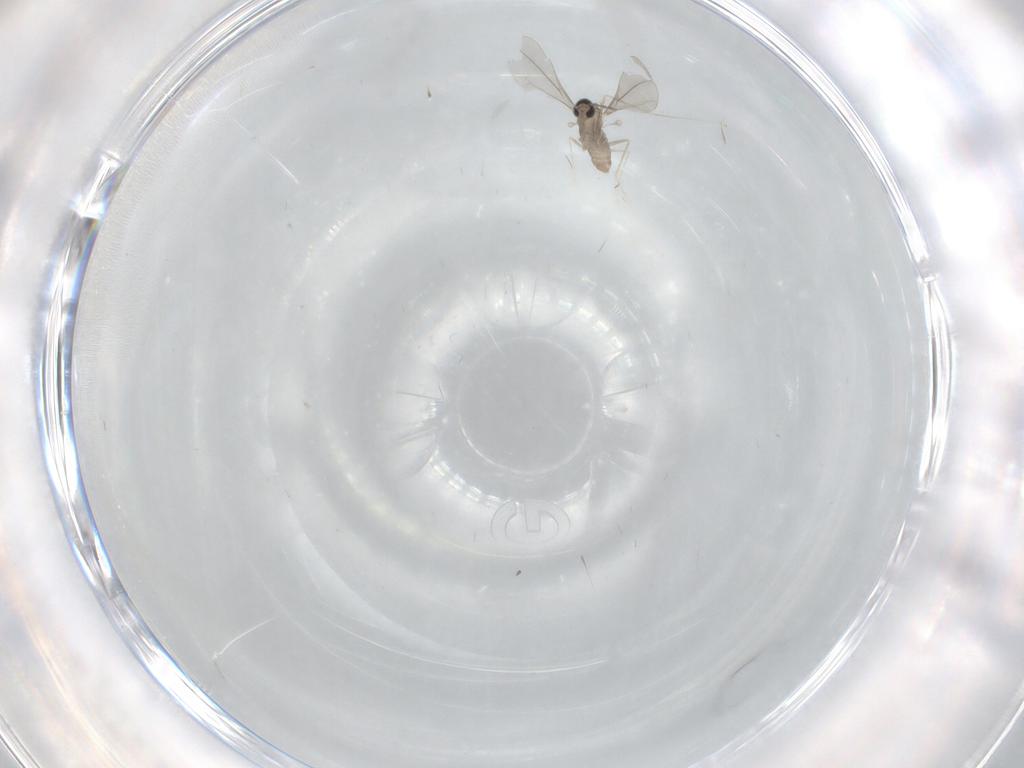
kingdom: Animalia
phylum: Arthropoda
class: Insecta
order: Diptera
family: Cecidomyiidae
